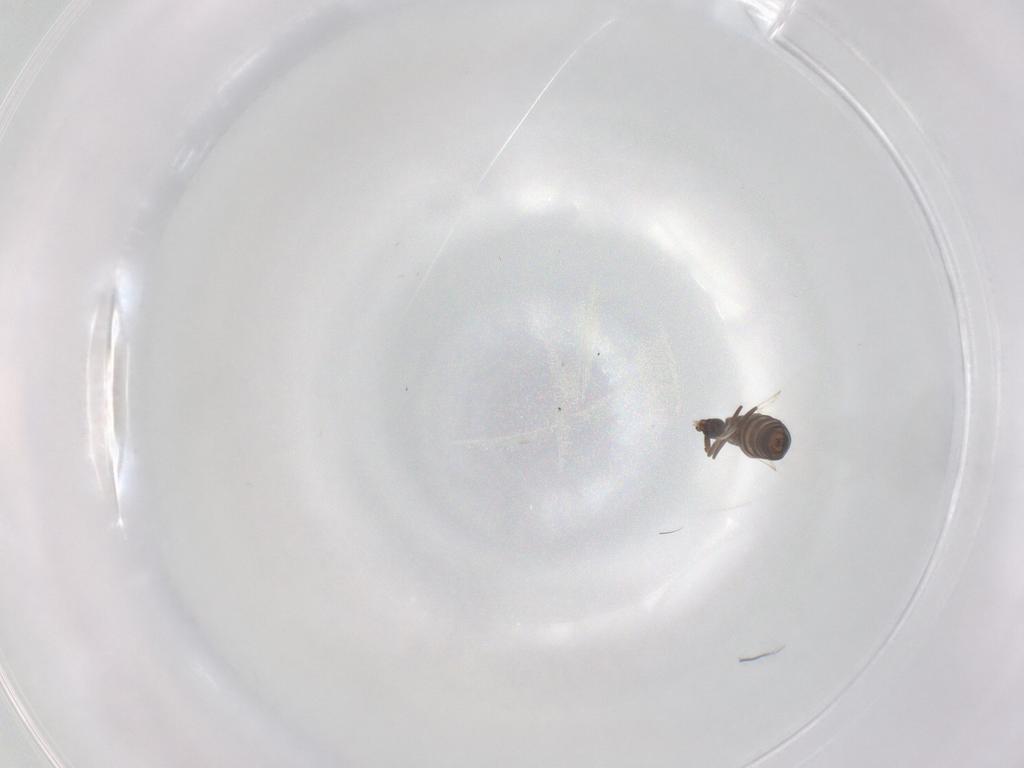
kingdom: Animalia
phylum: Arthropoda
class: Insecta
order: Diptera
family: Scatopsidae
